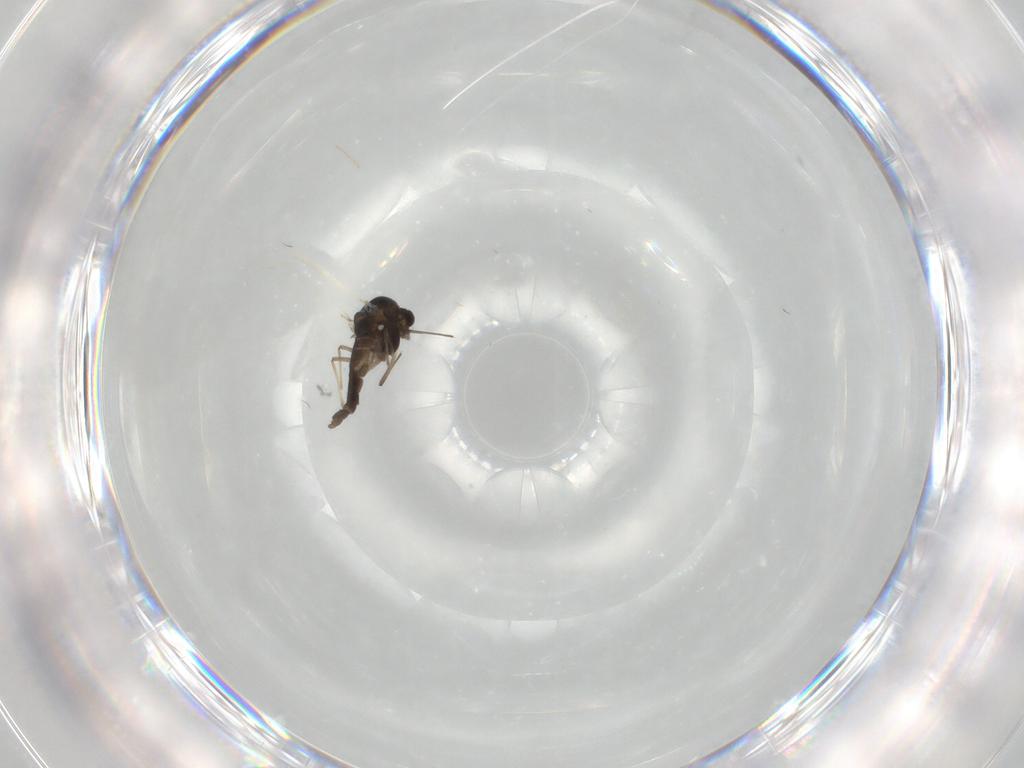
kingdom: Animalia
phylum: Arthropoda
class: Insecta
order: Diptera
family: Chironomidae
